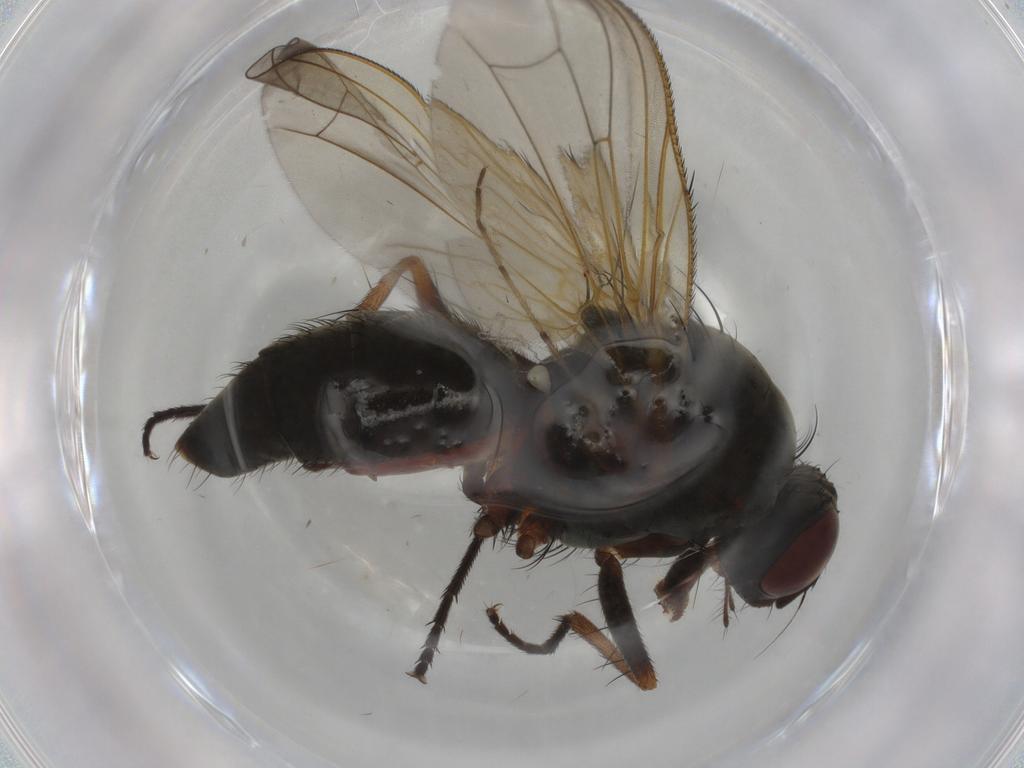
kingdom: Animalia
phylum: Arthropoda
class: Insecta
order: Diptera
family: Anthomyiidae
